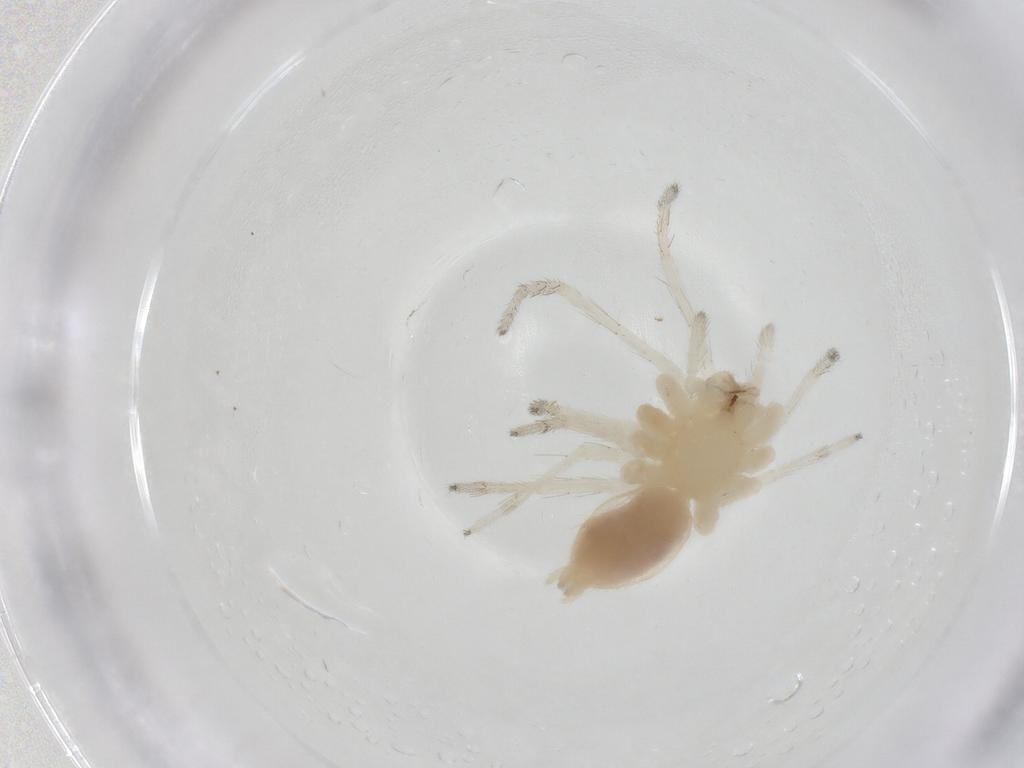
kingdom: Animalia
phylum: Arthropoda
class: Arachnida
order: Araneae
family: Anyphaenidae
